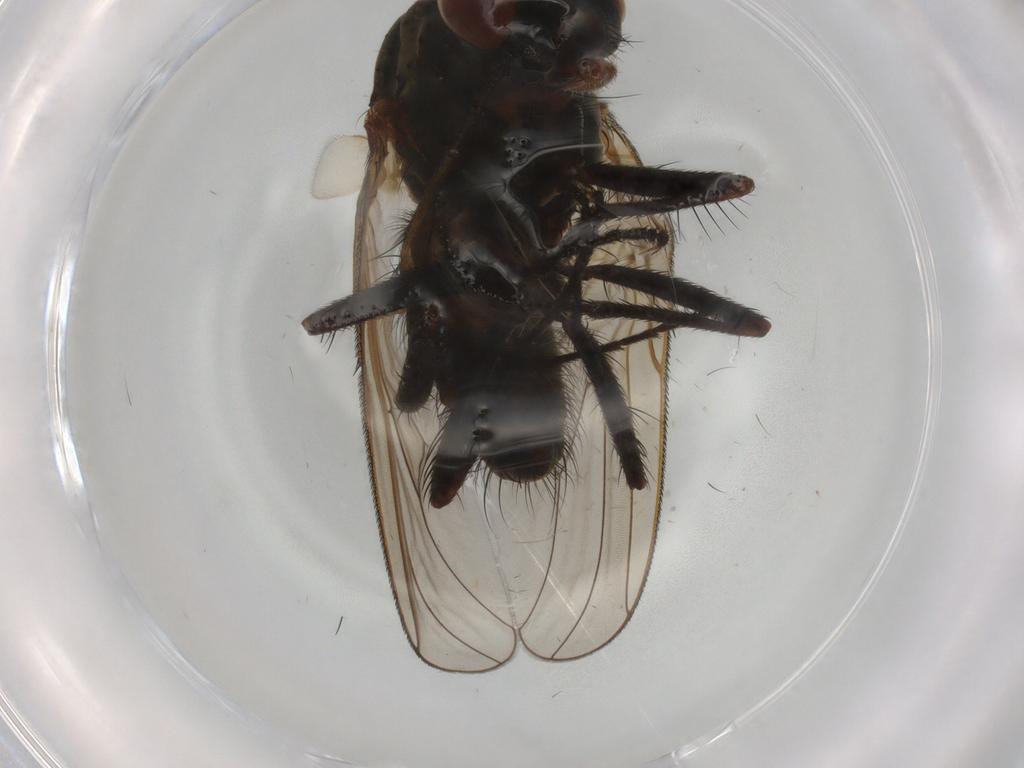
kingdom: Animalia
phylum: Arthropoda
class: Insecta
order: Diptera
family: Anthomyiidae
